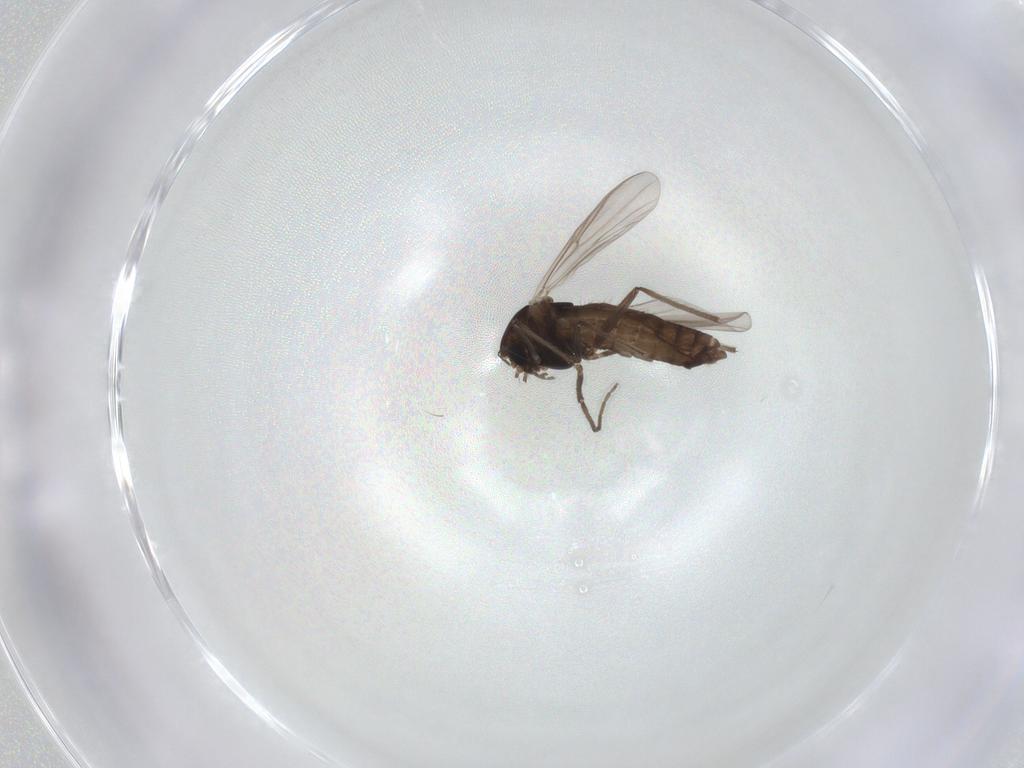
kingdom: Animalia
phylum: Arthropoda
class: Insecta
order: Diptera
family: Chironomidae
